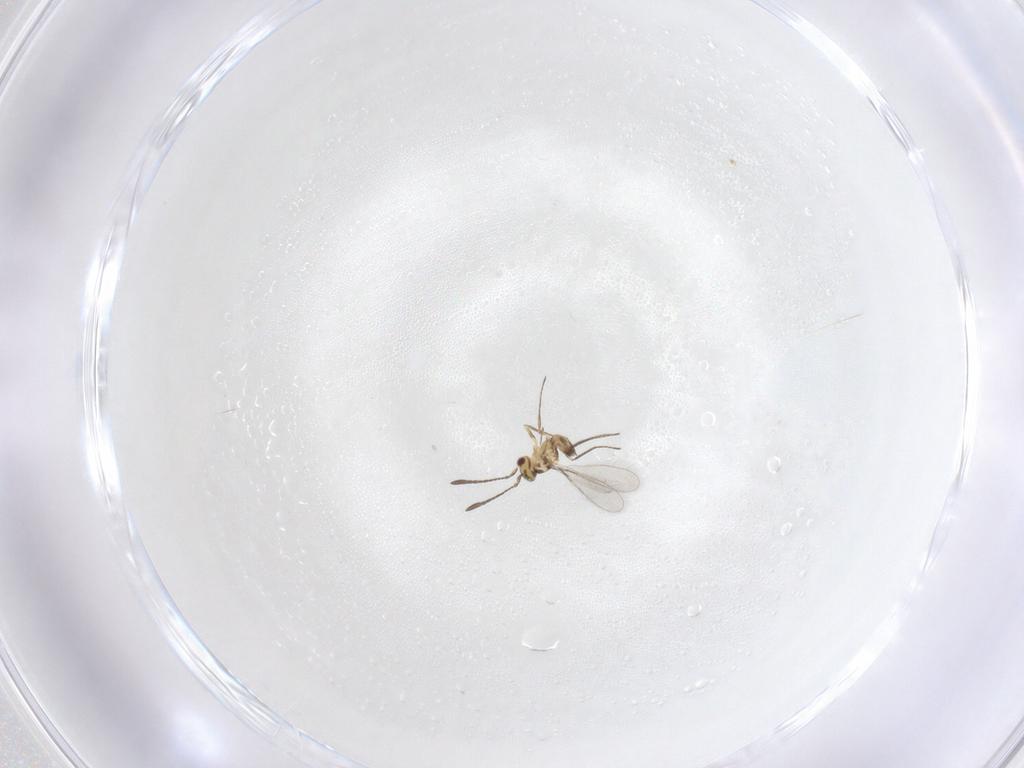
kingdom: Animalia
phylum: Arthropoda
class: Insecta
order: Hymenoptera
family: Mymaridae
